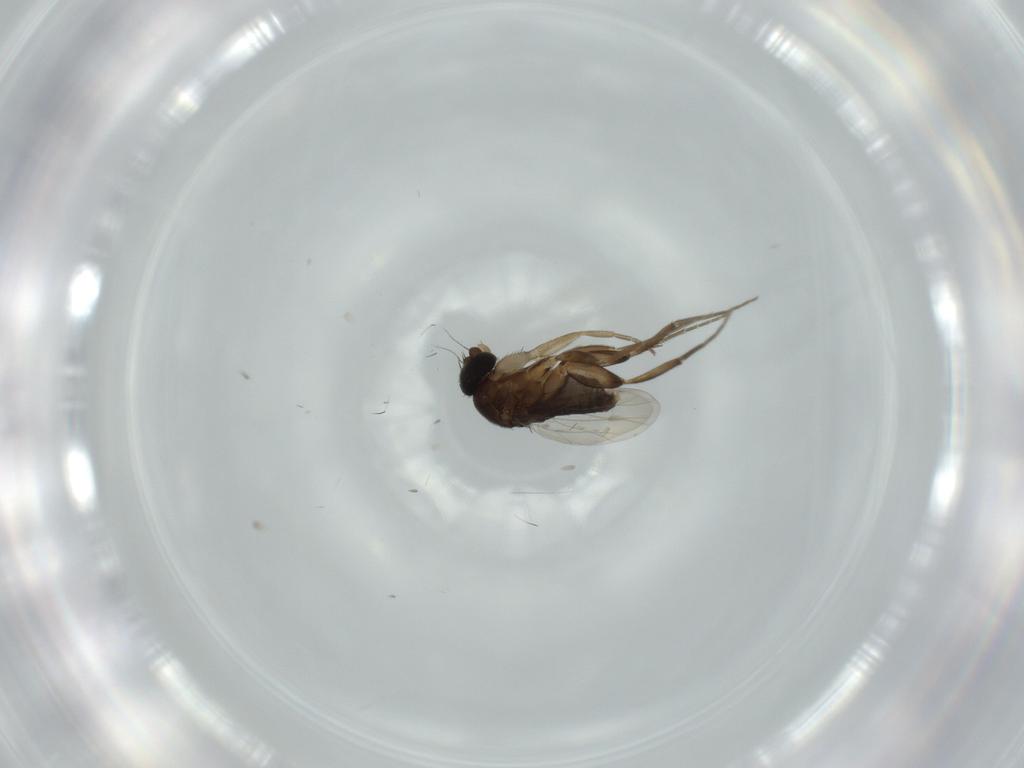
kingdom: Animalia
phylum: Arthropoda
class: Insecta
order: Diptera
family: Phoridae
